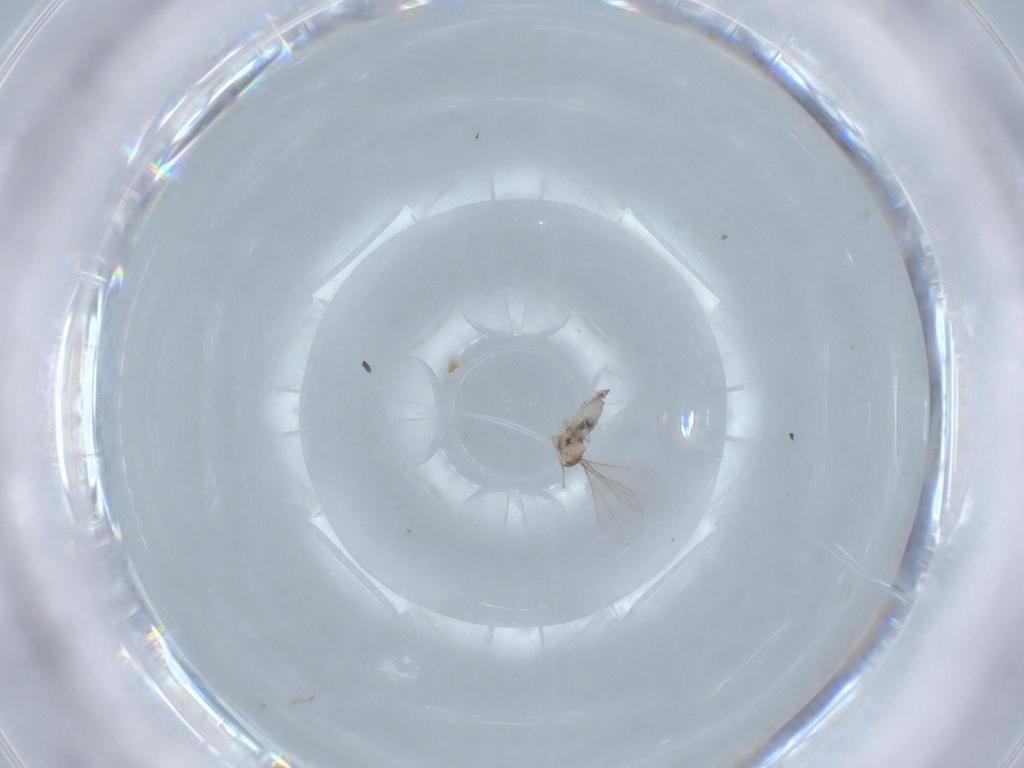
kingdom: Animalia
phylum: Arthropoda
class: Insecta
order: Diptera
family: Cecidomyiidae
